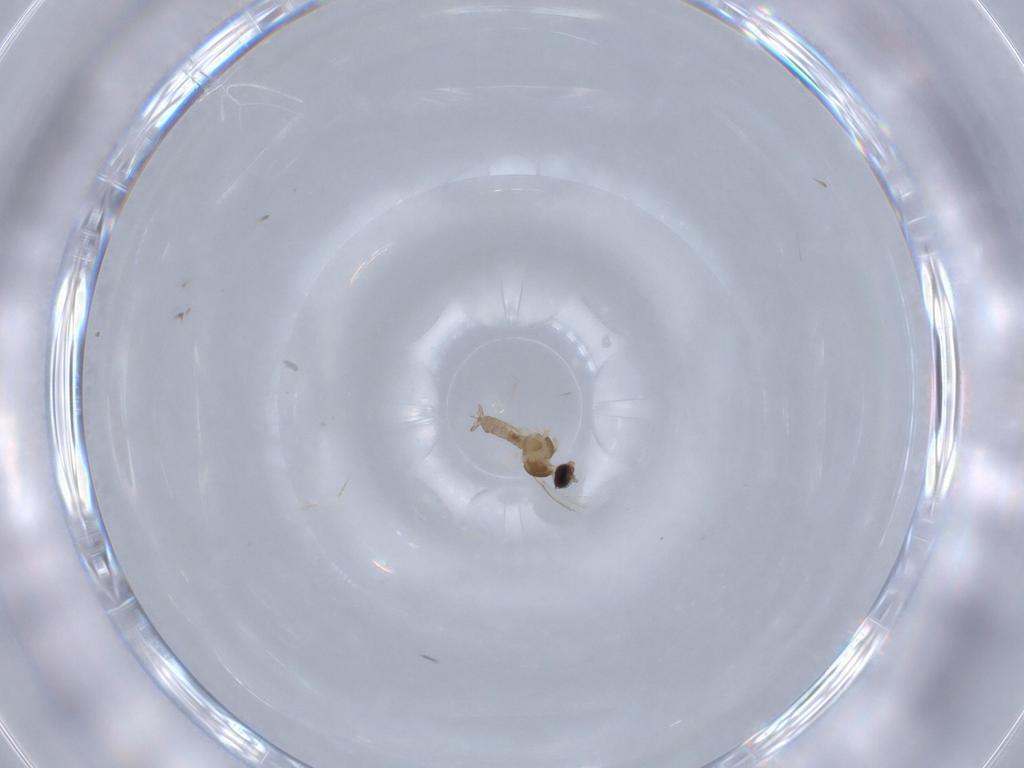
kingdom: Animalia
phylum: Arthropoda
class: Insecta
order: Diptera
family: Cecidomyiidae
